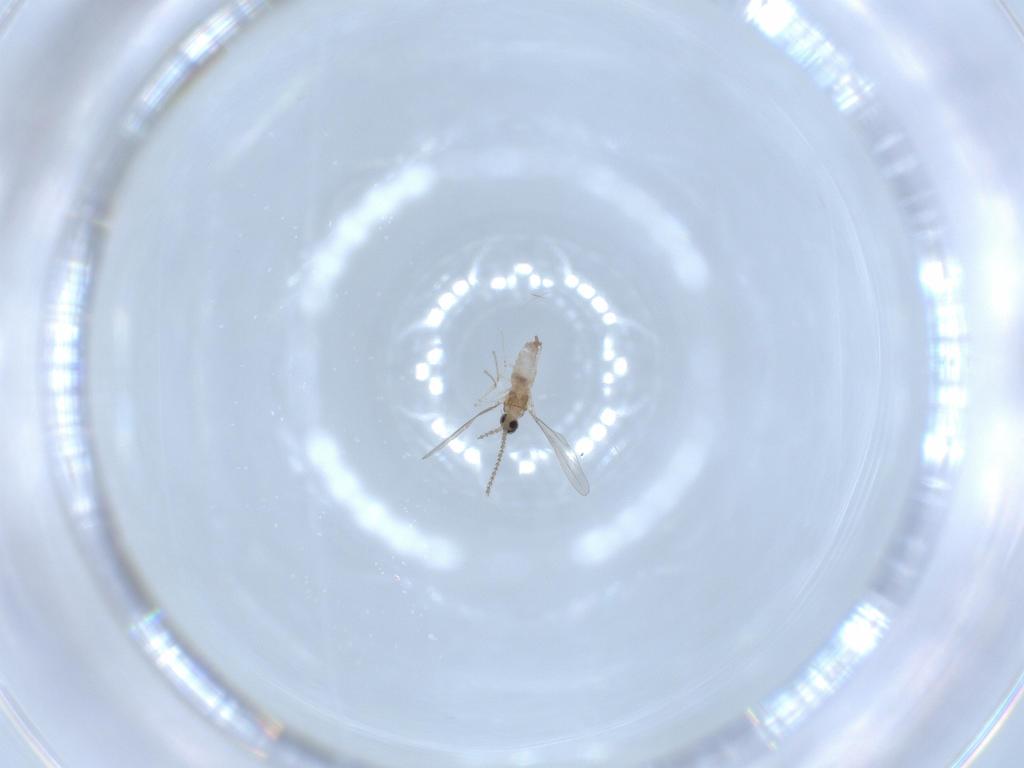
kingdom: Animalia
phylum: Arthropoda
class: Insecta
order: Diptera
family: Cecidomyiidae
